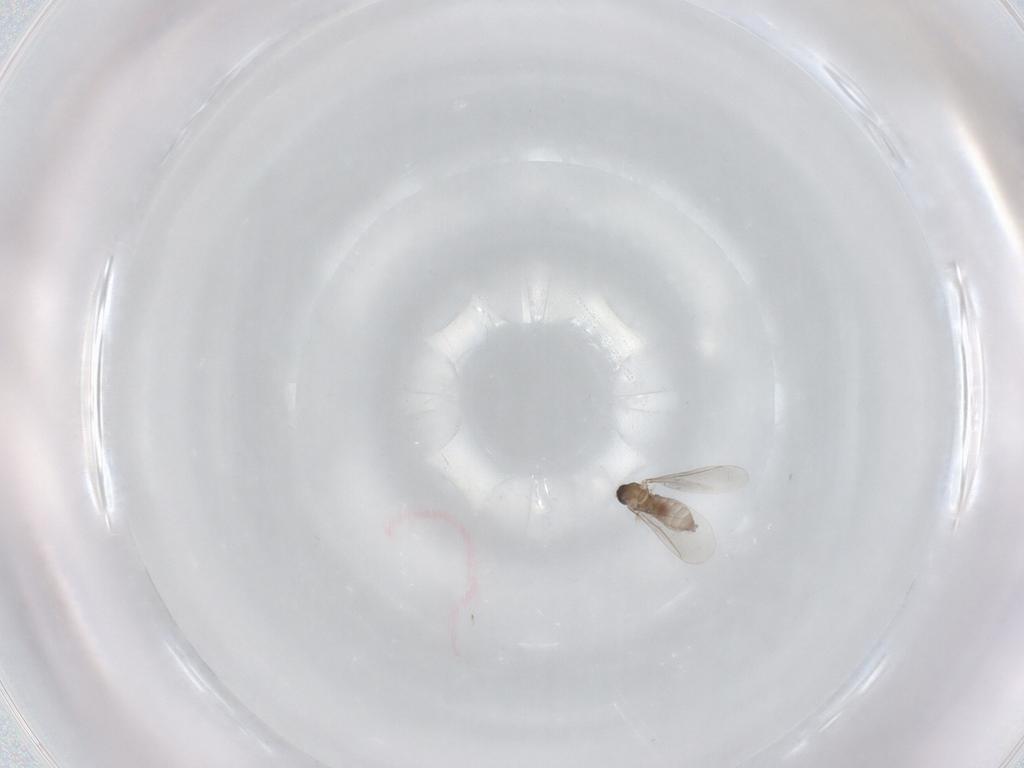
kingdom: Animalia
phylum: Arthropoda
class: Insecta
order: Diptera
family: Cecidomyiidae
